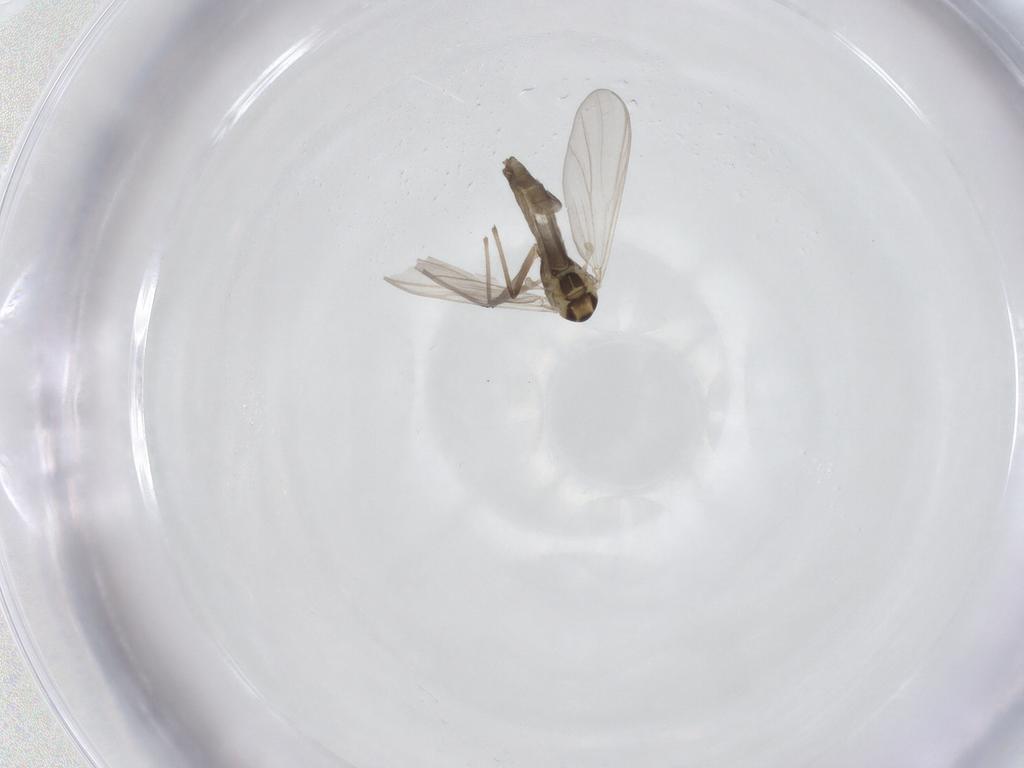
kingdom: Animalia
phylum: Arthropoda
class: Insecta
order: Diptera
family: Chironomidae
